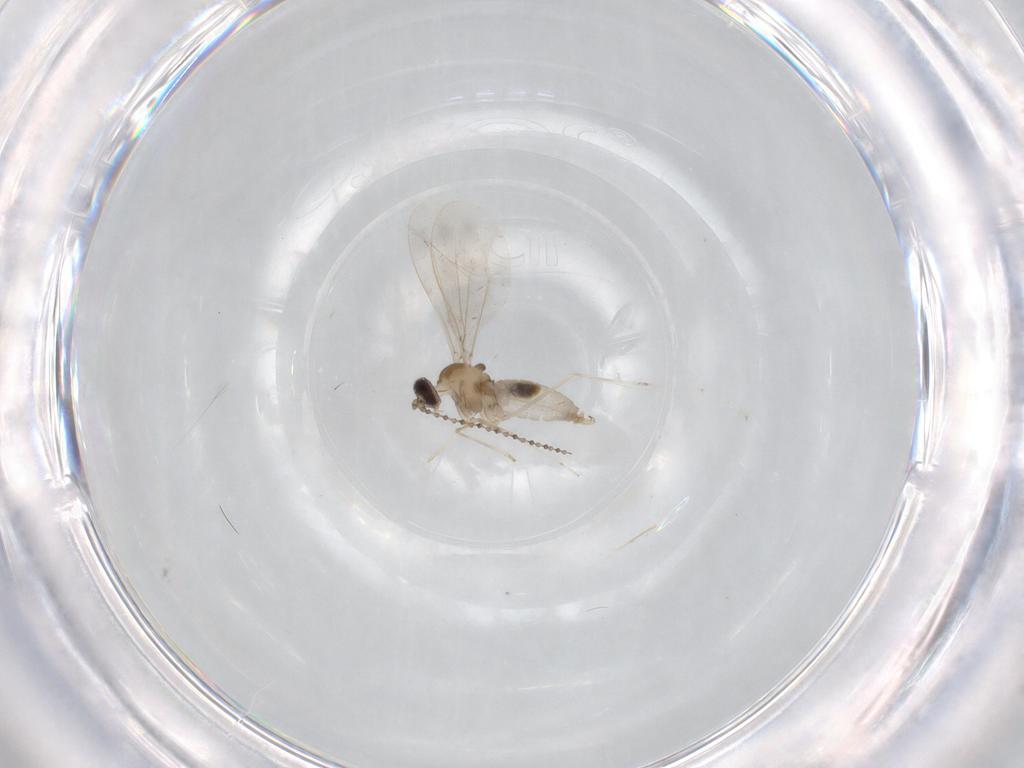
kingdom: Animalia
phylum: Arthropoda
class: Insecta
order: Diptera
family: Cecidomyiidae
